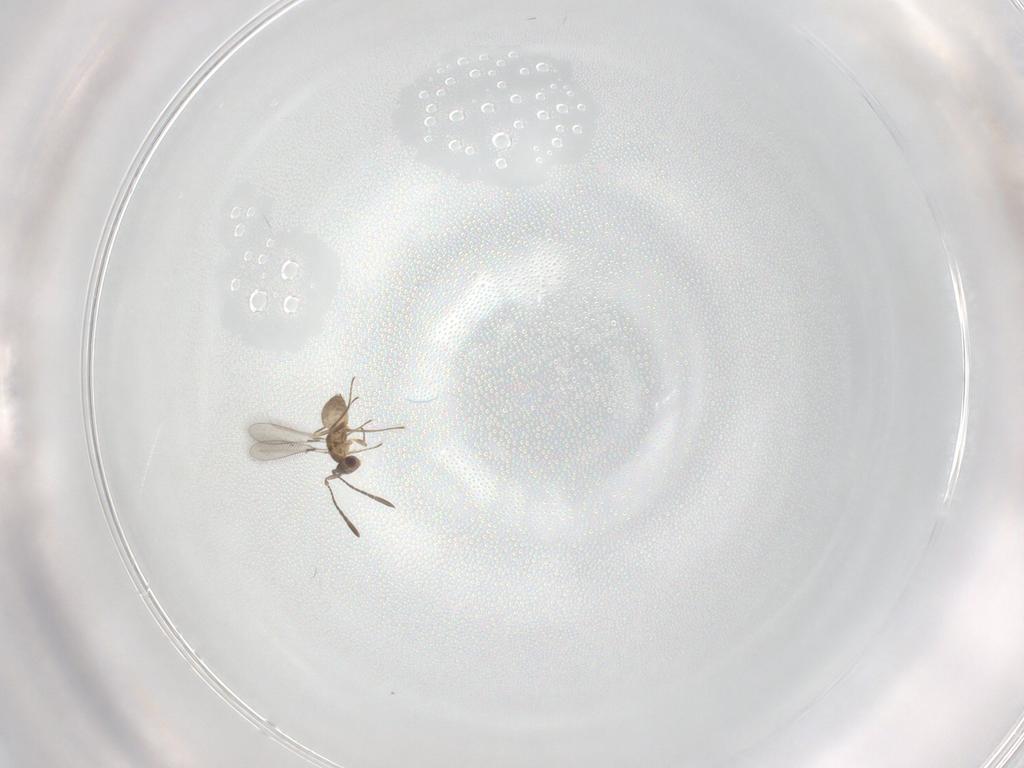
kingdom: Animalia
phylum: Arthropoda
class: Insecta
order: Hymenoptera
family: Mymaridae
